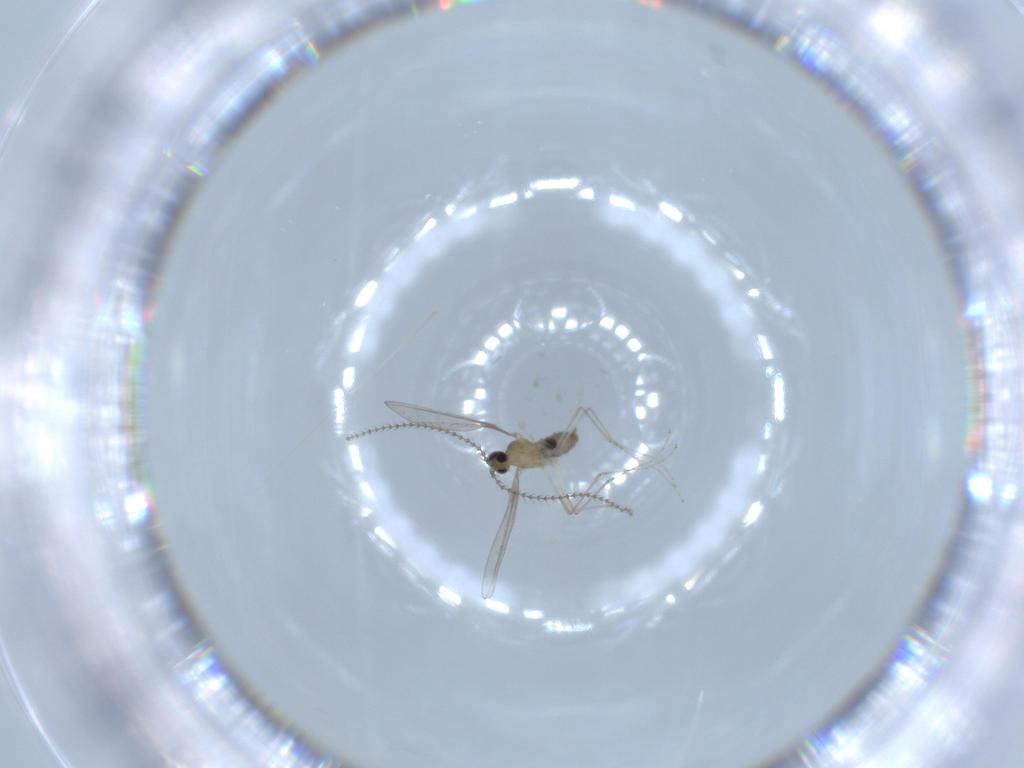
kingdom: Animalia
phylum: Arthropoda
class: Insecta
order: Diptera
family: Cecidomyiidae
